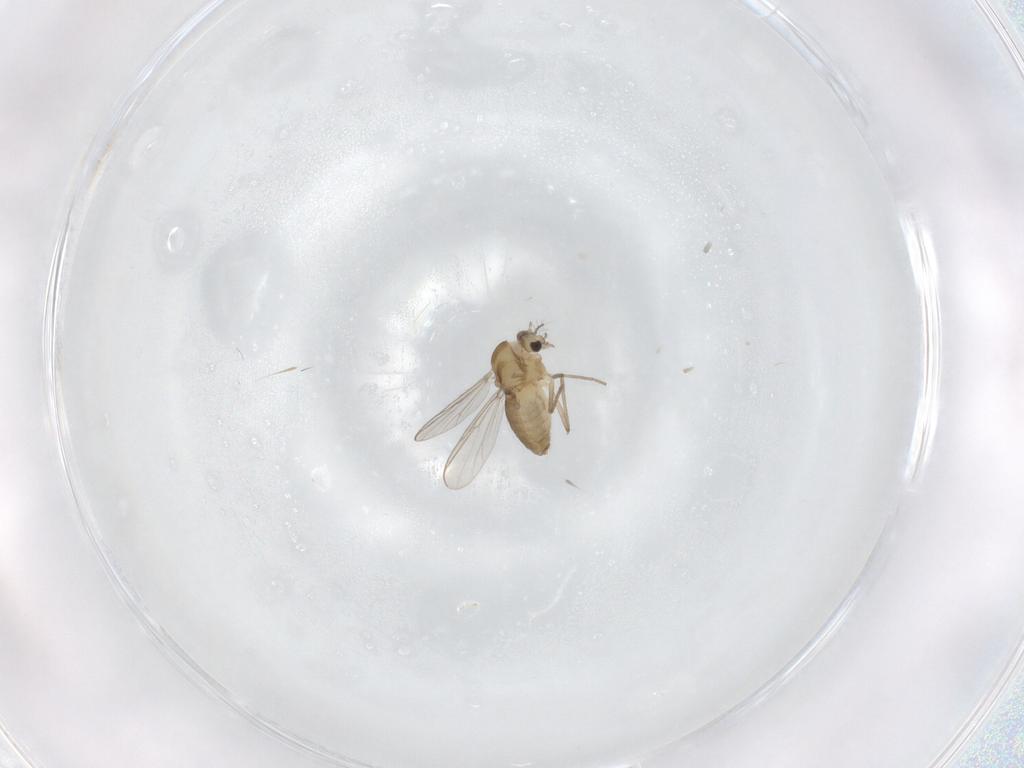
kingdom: Animalia
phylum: Arthropoda
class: Insecta
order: Diptera
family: Chironomidae
